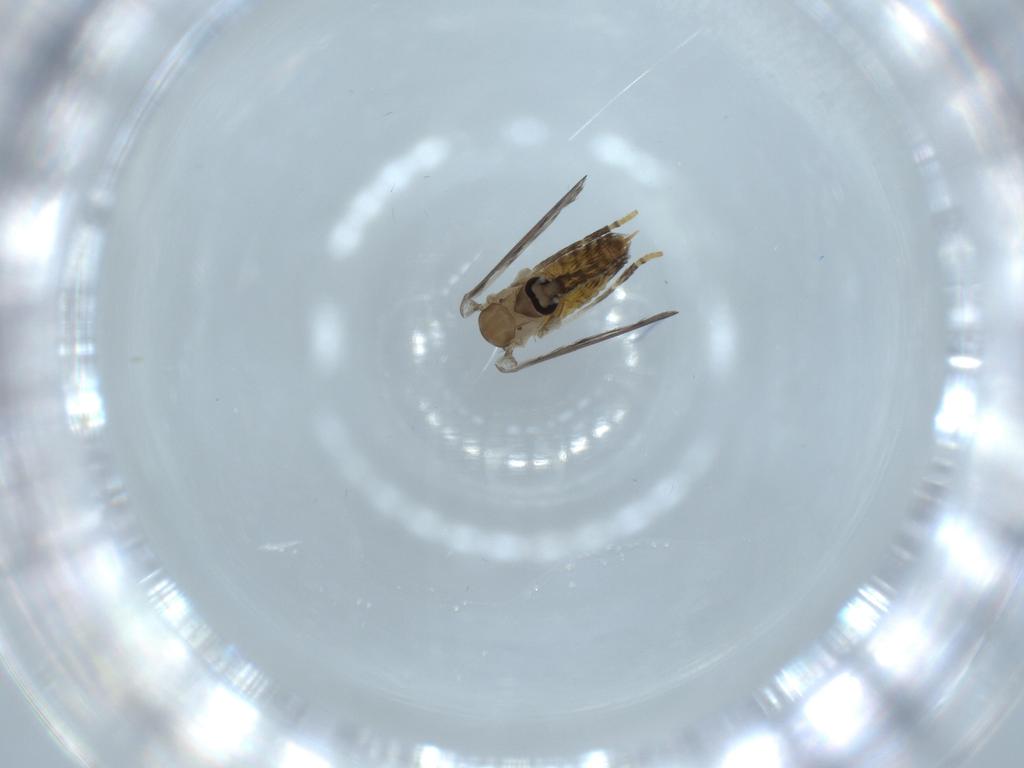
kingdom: Animalia
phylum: Arthropoda
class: Insecta
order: Diptera
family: Psychodidae
